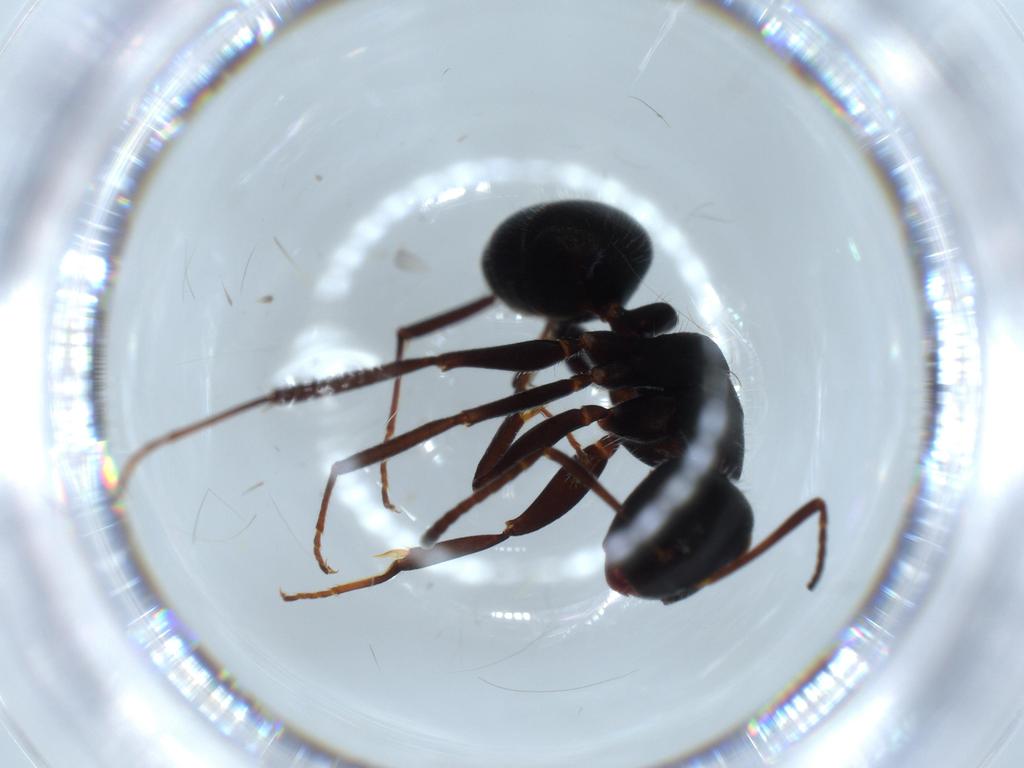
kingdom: Animalia
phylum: Arthropoda
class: Insecta
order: Hymenoptera
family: Formicidae
